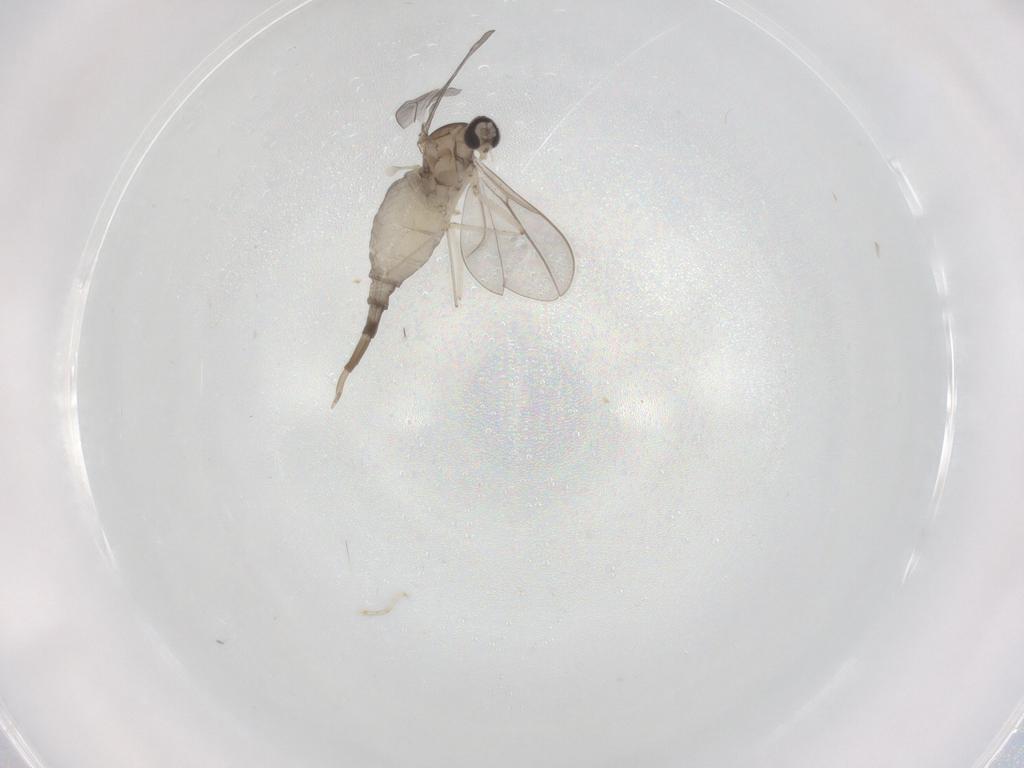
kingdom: Animalia
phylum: Arthropoda
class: Insecta
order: Diptera
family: Cecidomyiidae
